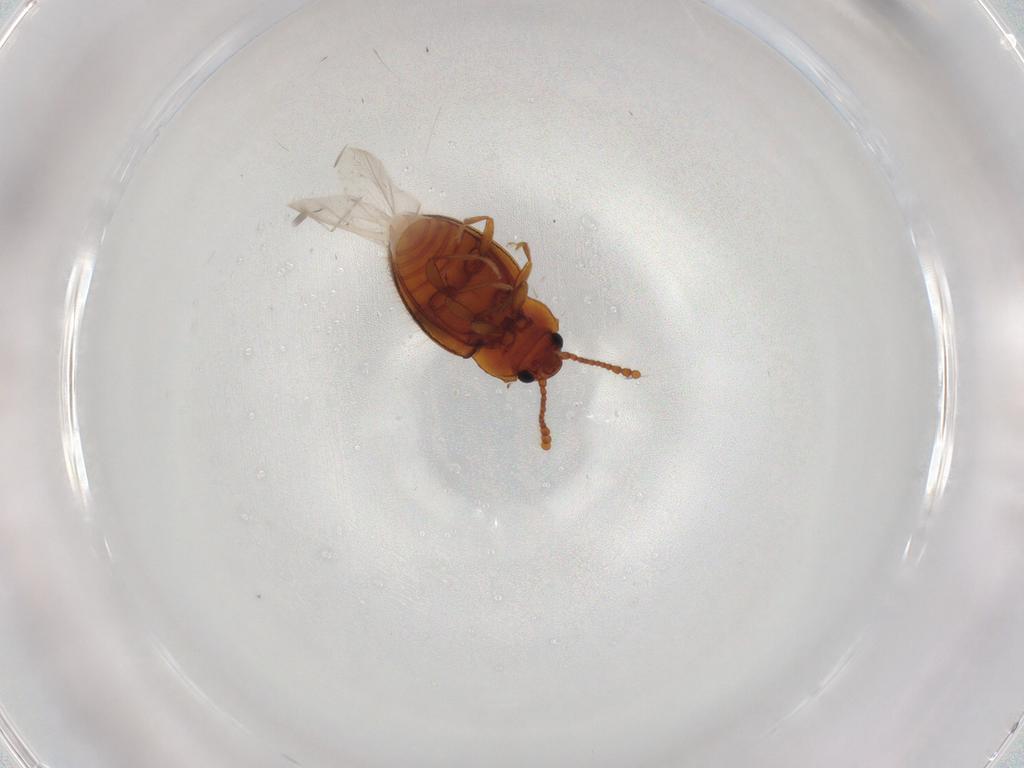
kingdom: Animalia
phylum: Arthropoda
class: Insecta
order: Coleoptera
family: Erotylidae
